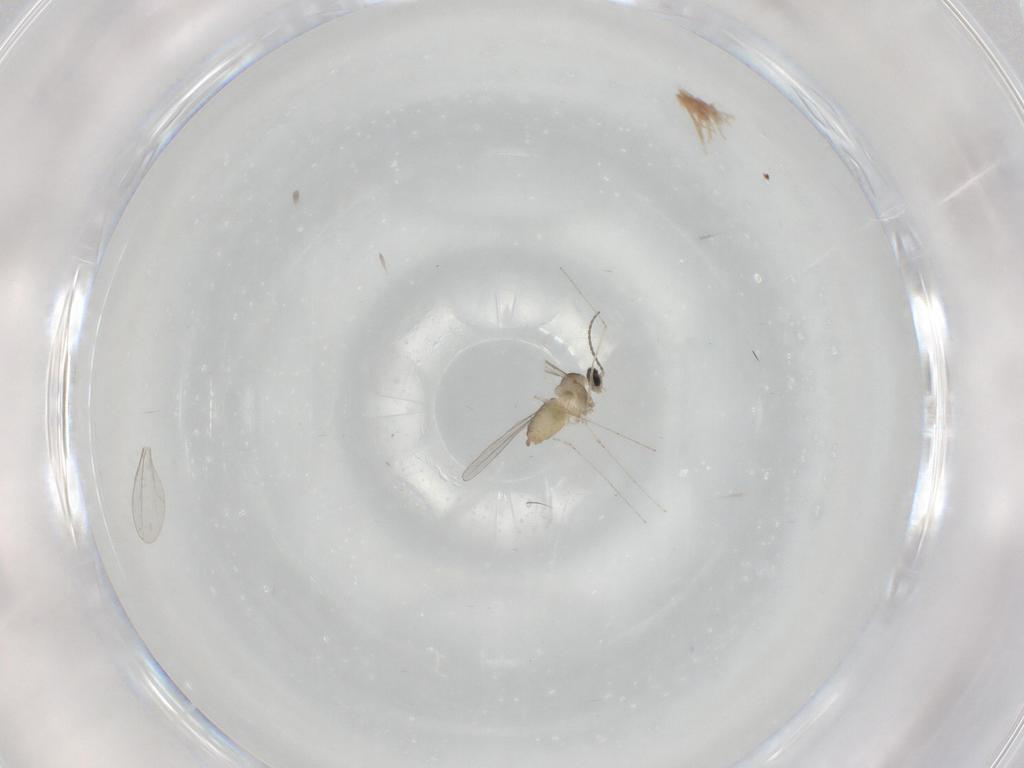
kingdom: Animalia
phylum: Arthropoda
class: Insecta
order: Diptera
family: Cecidomyiidae
